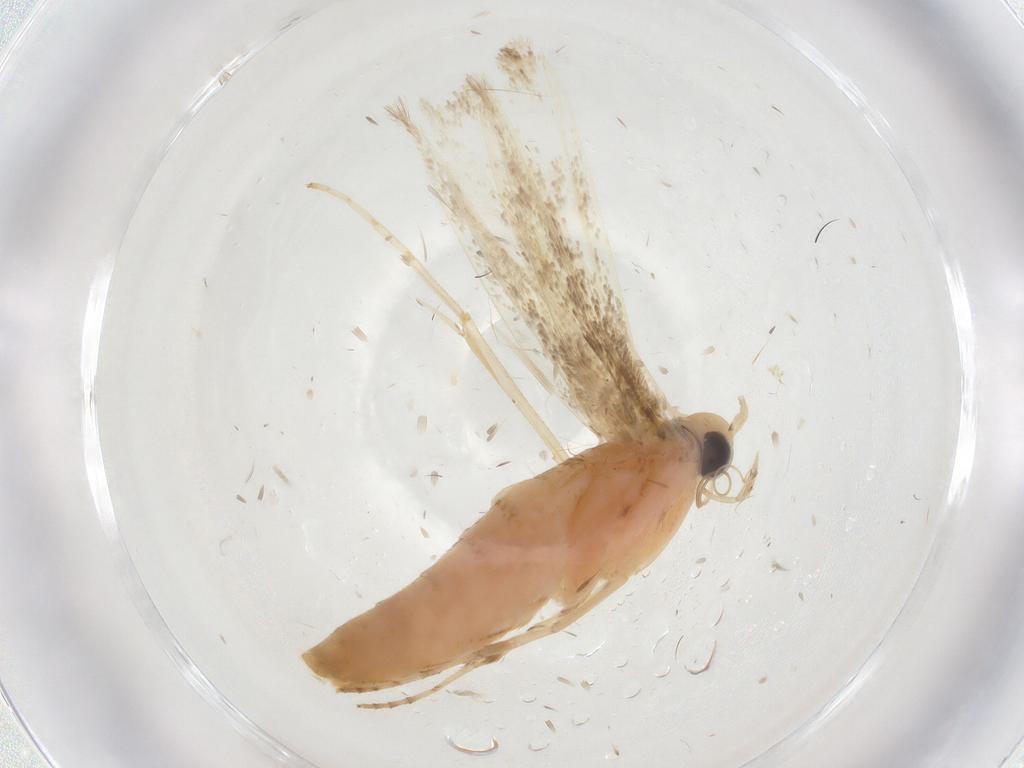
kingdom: Animalia
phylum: Arthropoda
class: Insecta
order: Lepidoptera
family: Gracillariidae
